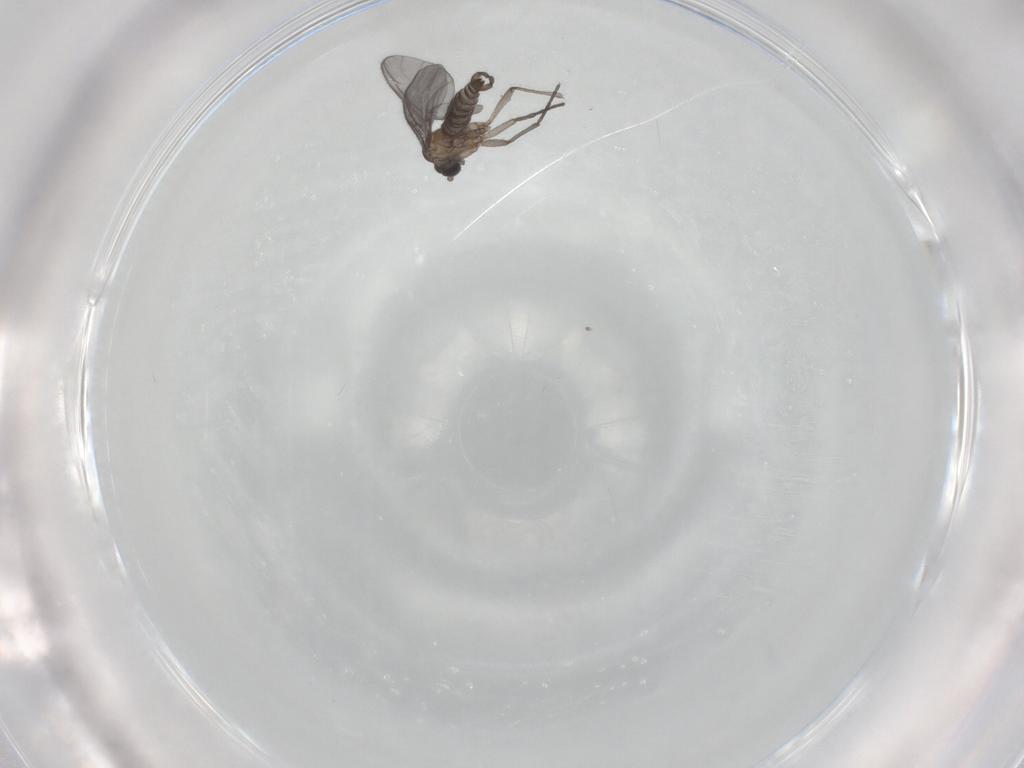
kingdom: Animalia
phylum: Arthropoda
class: Insecta
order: Diptera
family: Sciaridae
